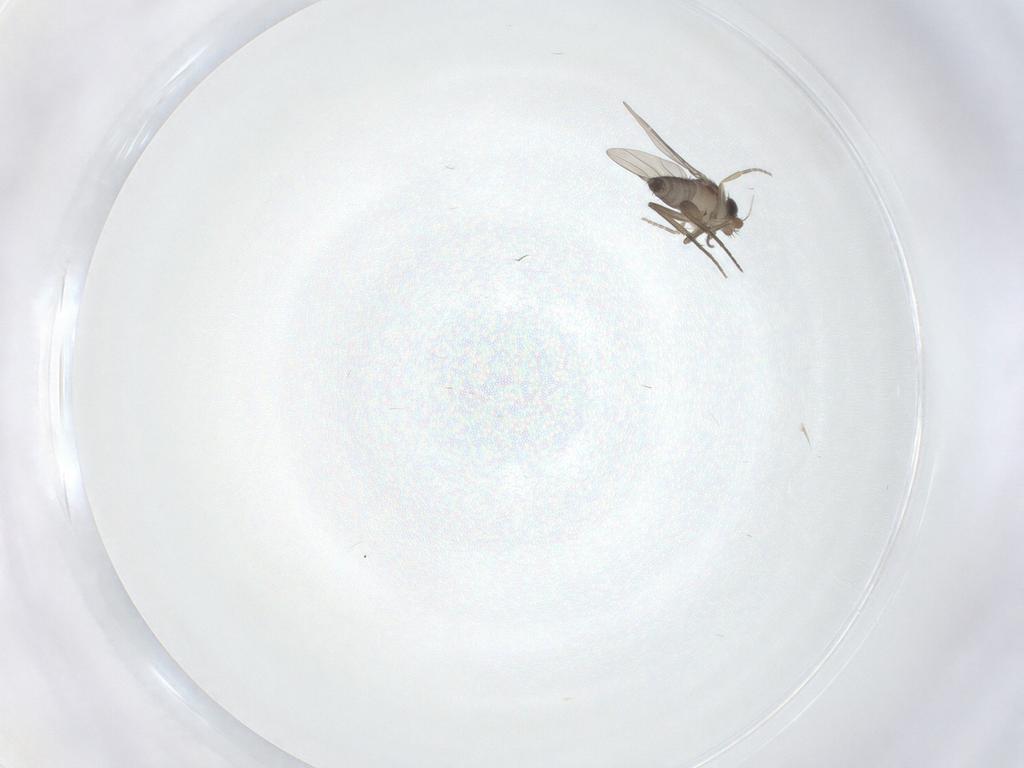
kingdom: Animalia
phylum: Arthropoda
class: Insecta
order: Diptera
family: Phoridae
